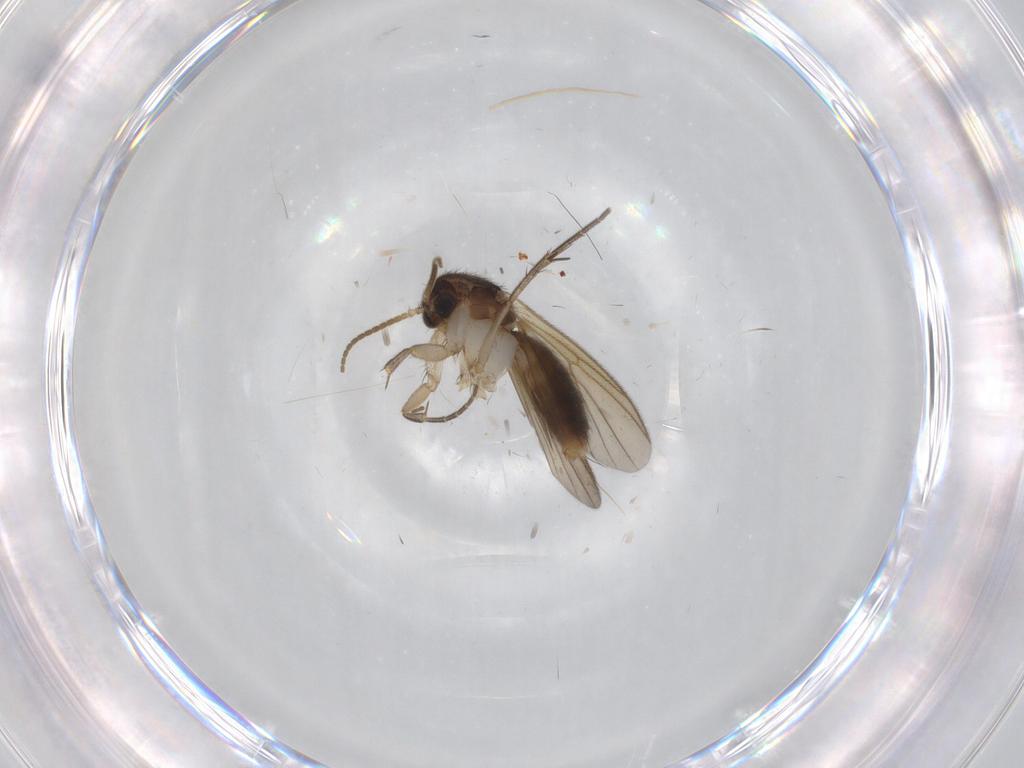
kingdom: Animalia
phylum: Arthropoda
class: Insecta
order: Diptera
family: Cecidomyiidae
